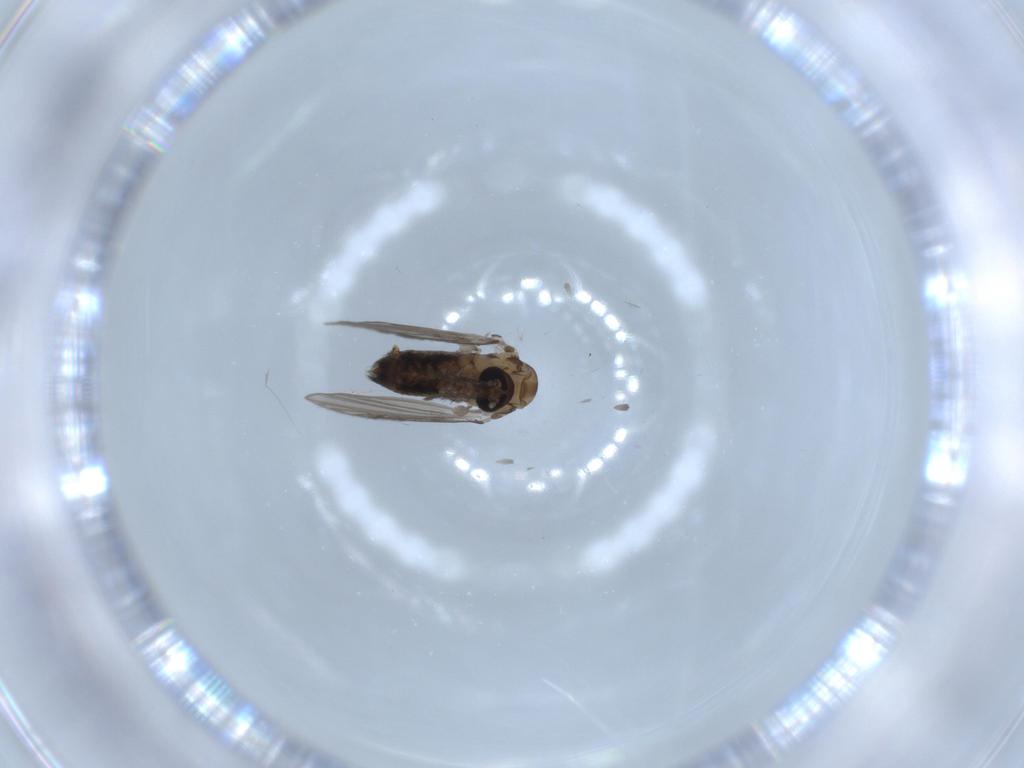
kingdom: Animalia
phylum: Arthropoda
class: Insecta
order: Diptera
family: Psychodidae
